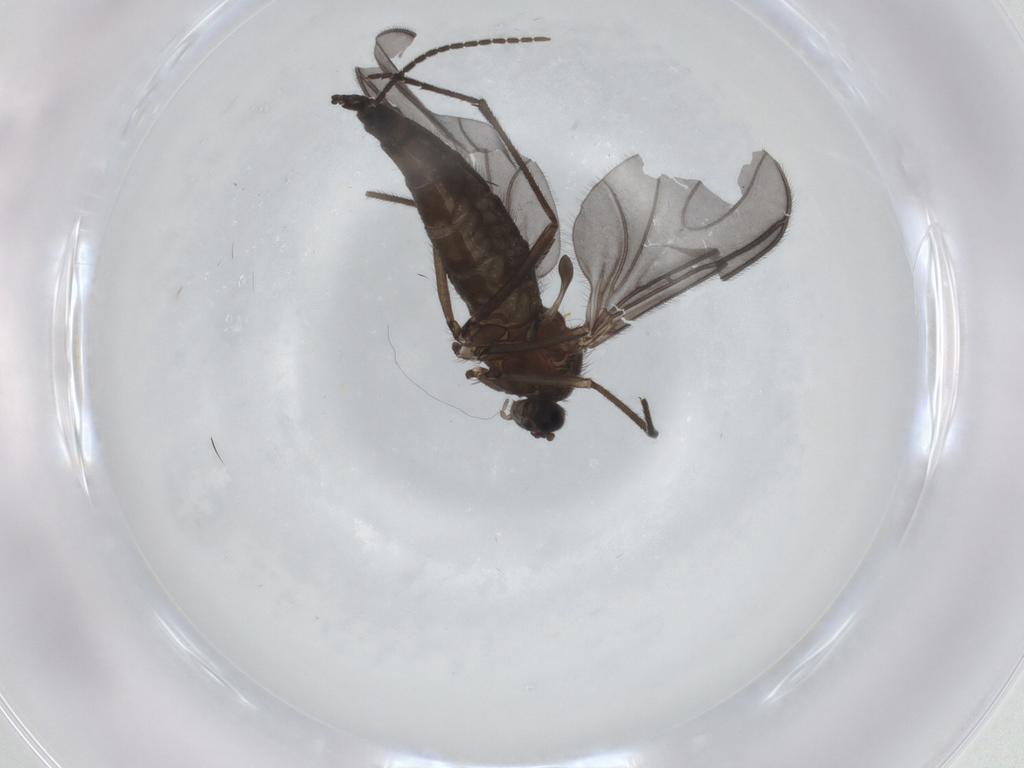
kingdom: Animalia
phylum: Arthropoda
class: Insecta
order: Diptera
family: Sciaridae
